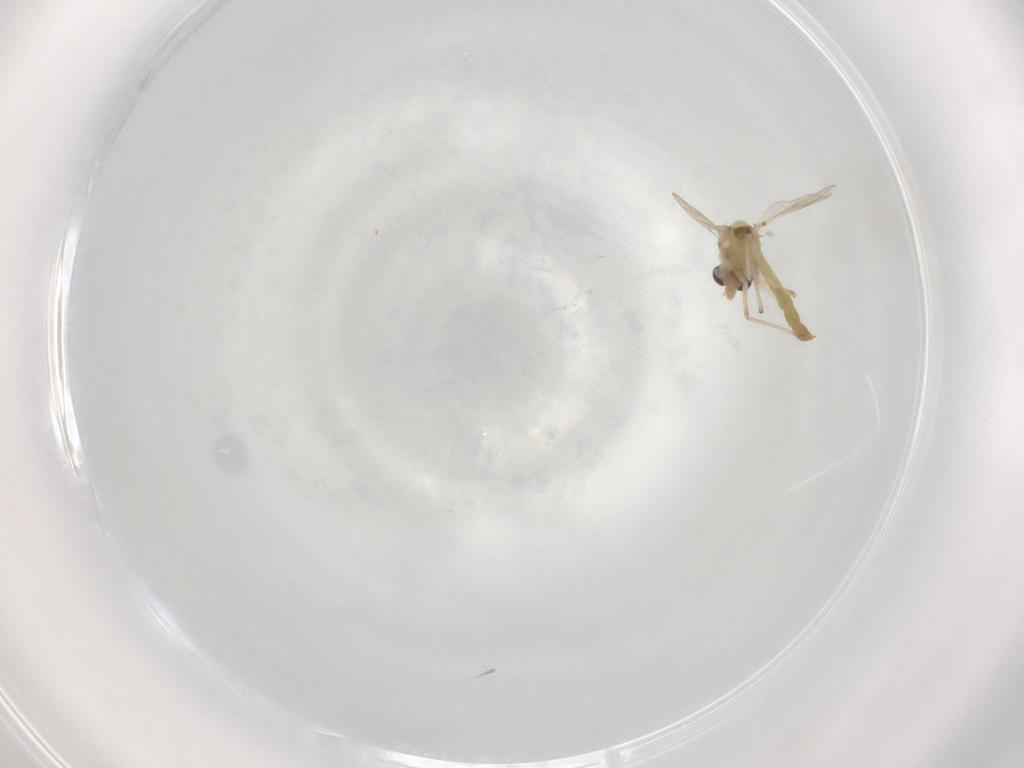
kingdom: Animalia
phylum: Arthropoda
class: Insecta
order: Diptera
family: Chironomidae
